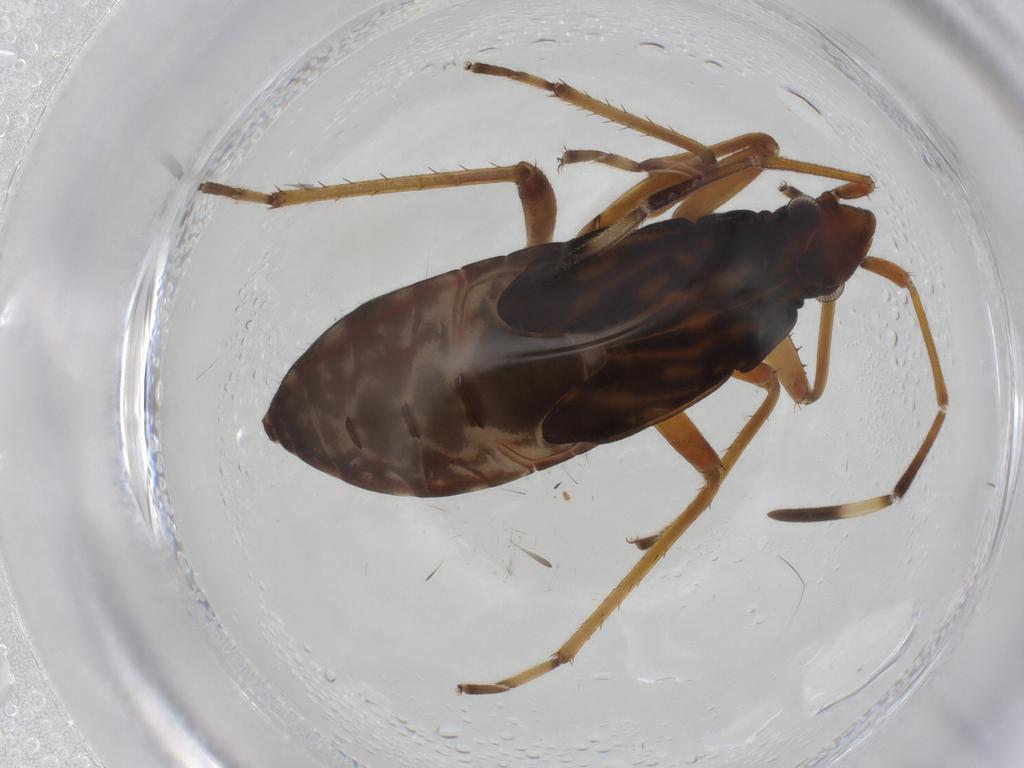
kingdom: Animalia
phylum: Arthropoda
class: Insecta
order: Hemiptera
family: Rhyparochromidae
